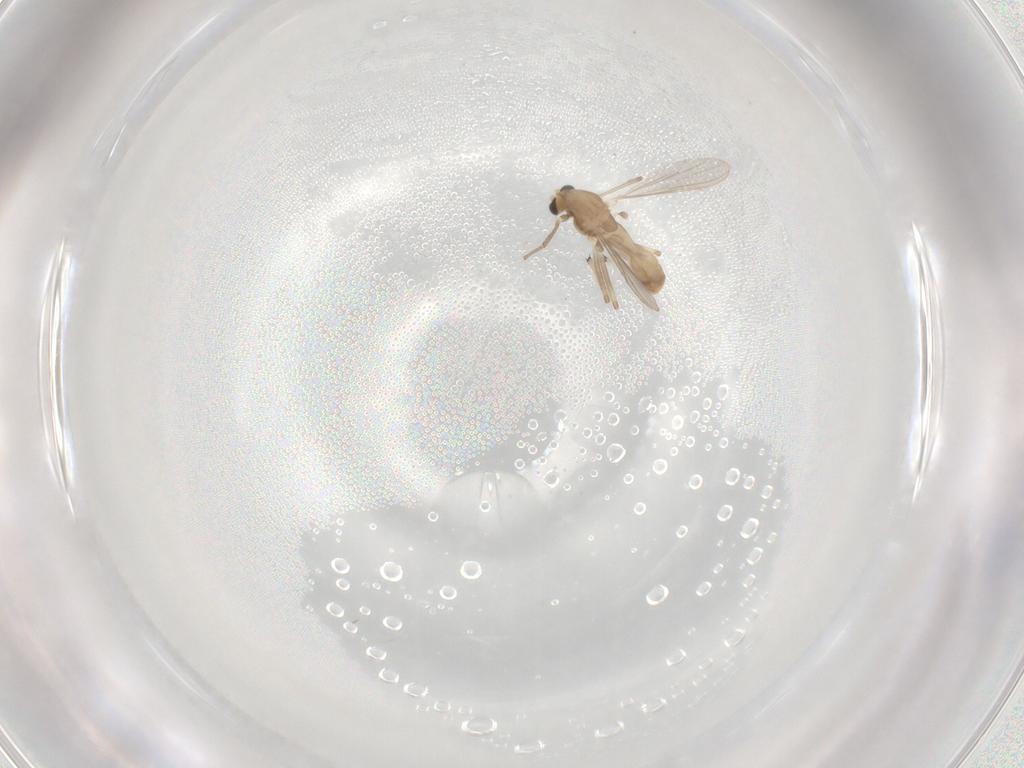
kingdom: Animalia
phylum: Arthropoda
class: Insecta
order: Diptera
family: Chironomidae
